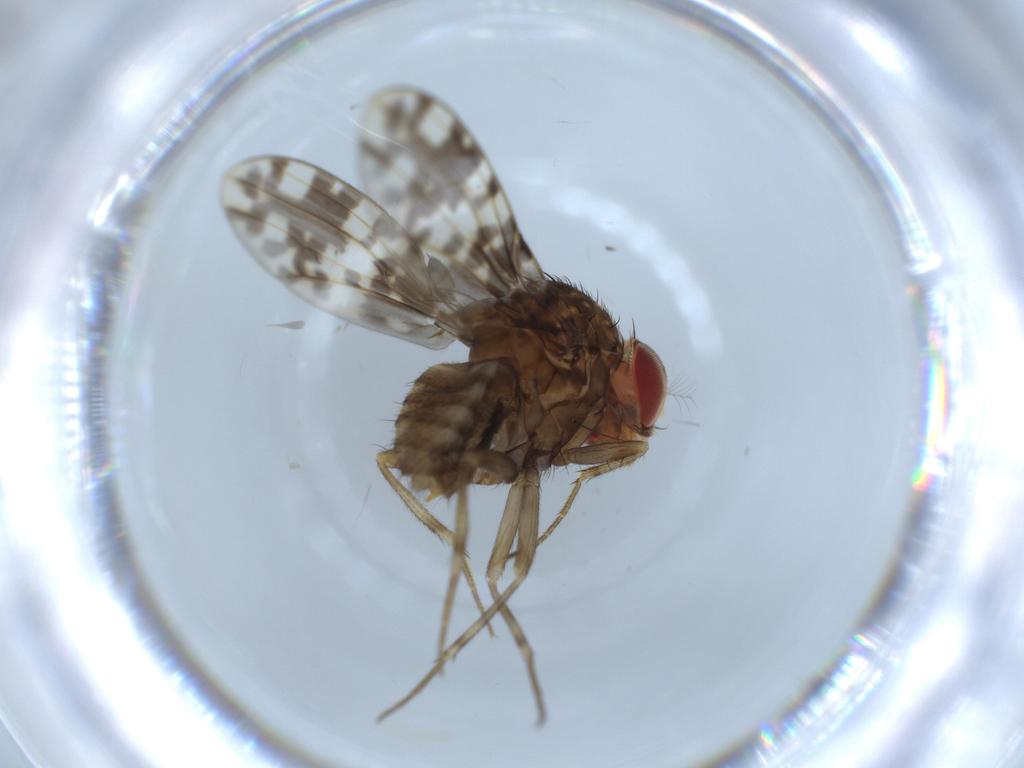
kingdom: Animalia
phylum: Arthropoda
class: Insecta
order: Diptera
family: Drosophilidae
